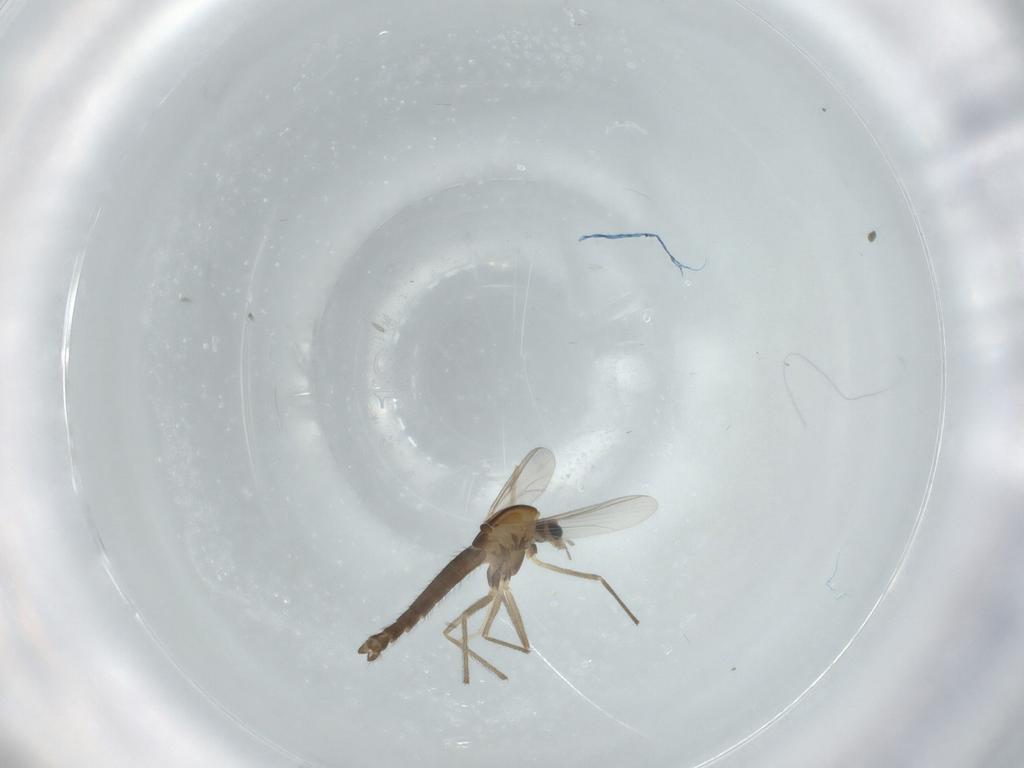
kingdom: Animalia
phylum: Arthropoda
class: Insecta
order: Diptera
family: Chironomidae
